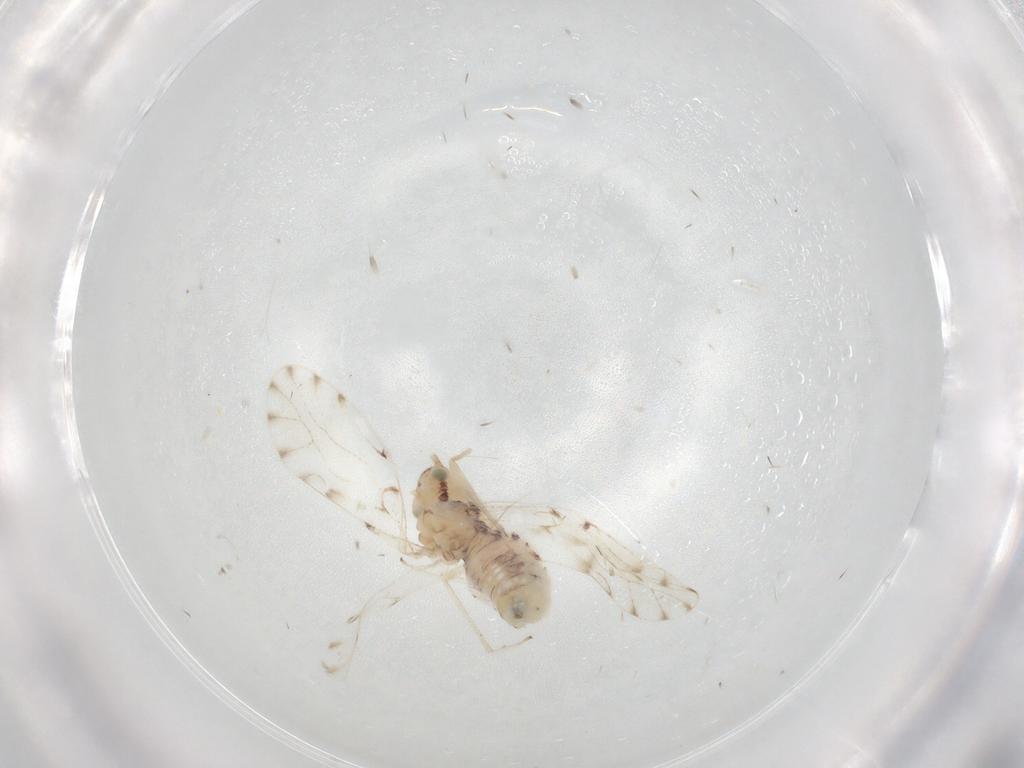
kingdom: Animalia
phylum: Arthropoda
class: Insecta
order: Psocodea
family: Ectopsocidae
